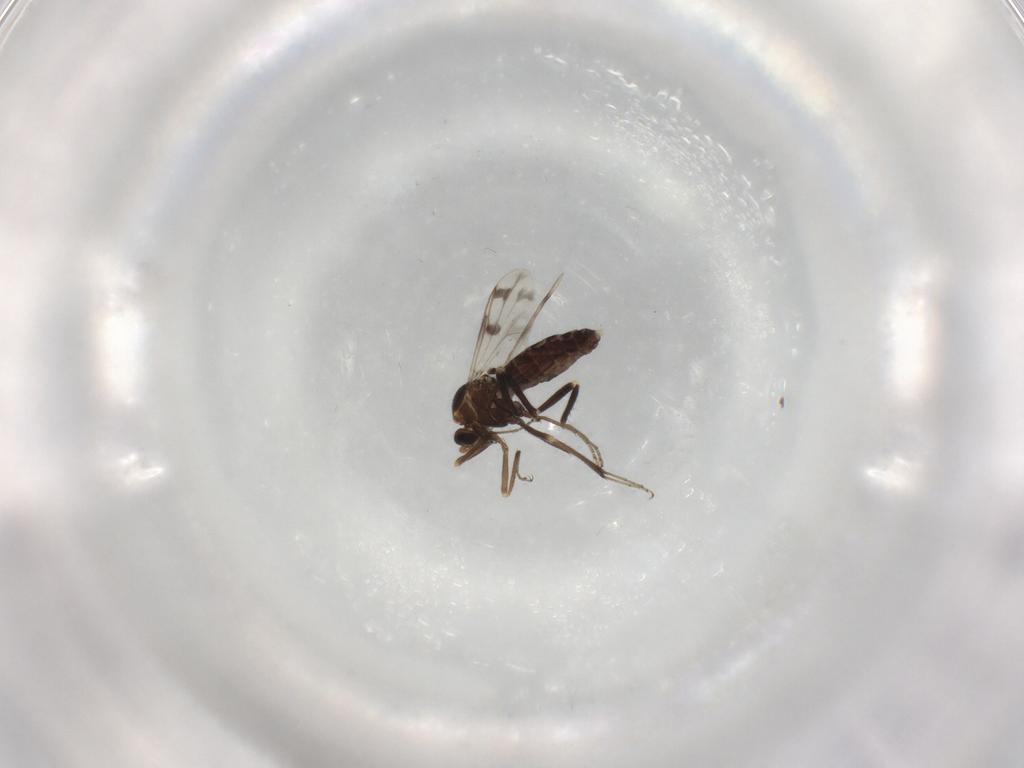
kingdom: Animalia
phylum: Arthropoda
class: Insecta
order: Diptera
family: Ceratopogonidae
